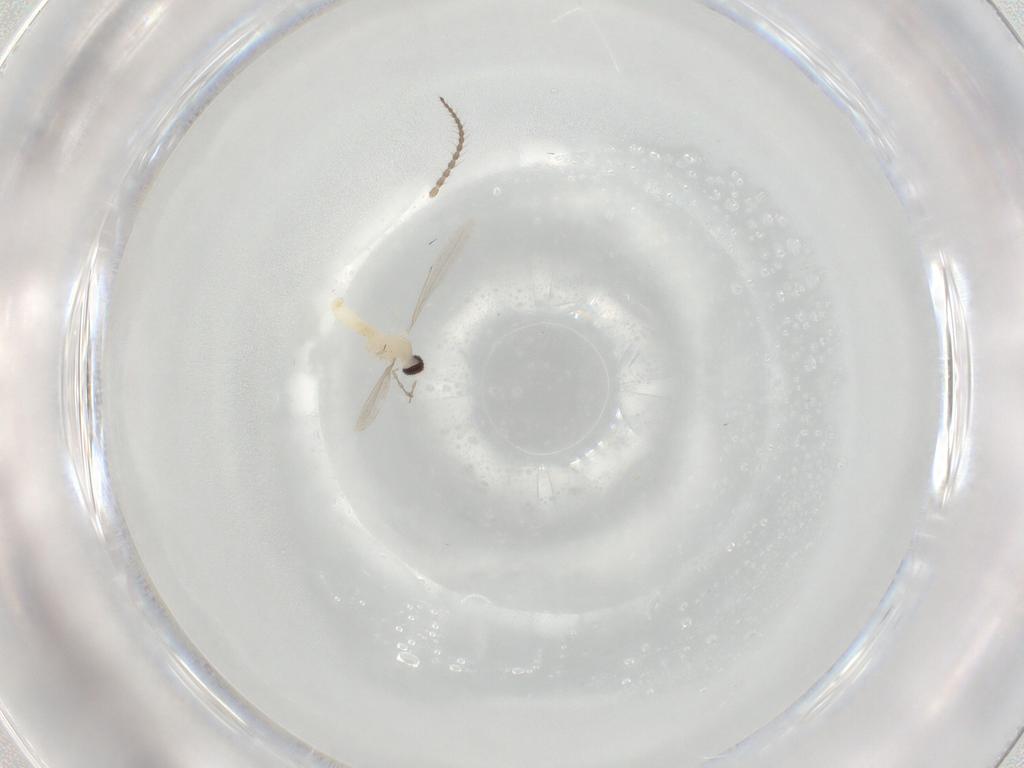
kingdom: Animalia
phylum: Arthropoda
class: Insecta
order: Diptera
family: Cecidomyiidae
